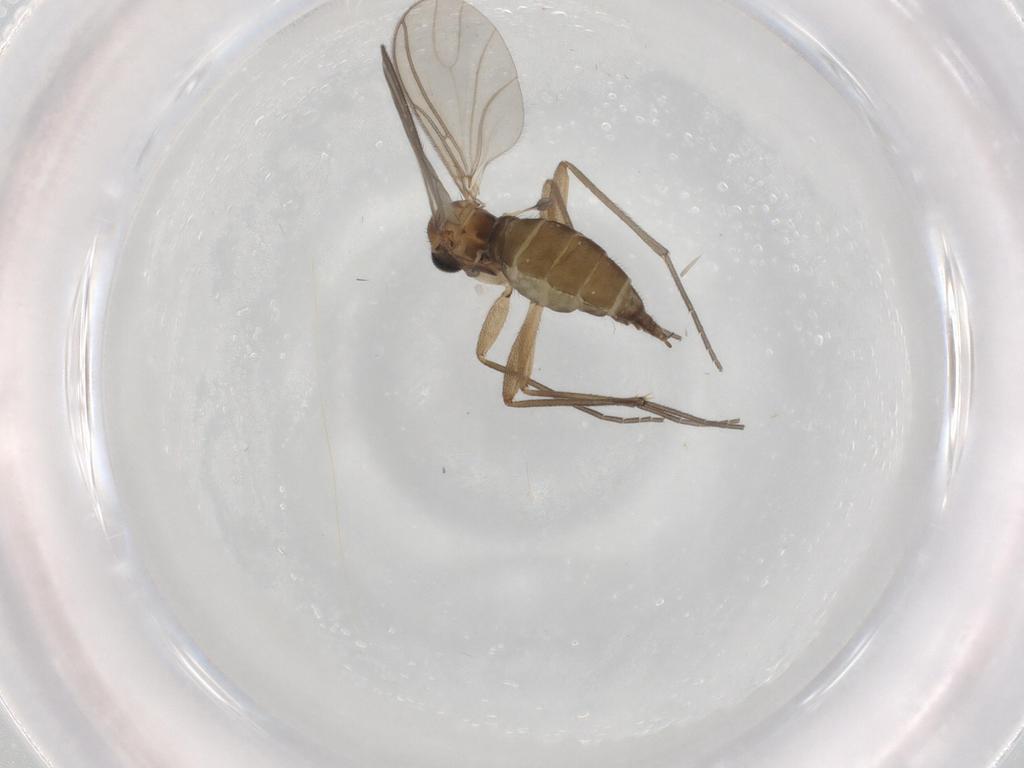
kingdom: Animalia
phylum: Arthropoda
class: Insecta
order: Diptera
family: Sciaridae
